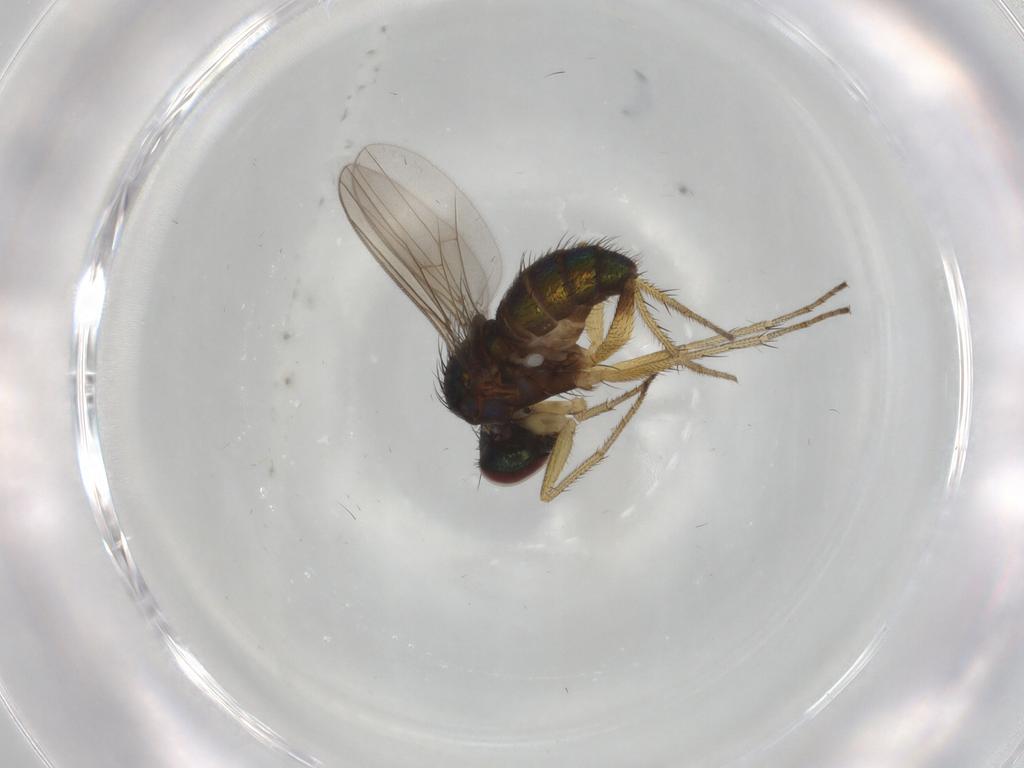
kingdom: Animalia
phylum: Arthropoda
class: Insecta
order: Diptera
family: Dolichopodidae
